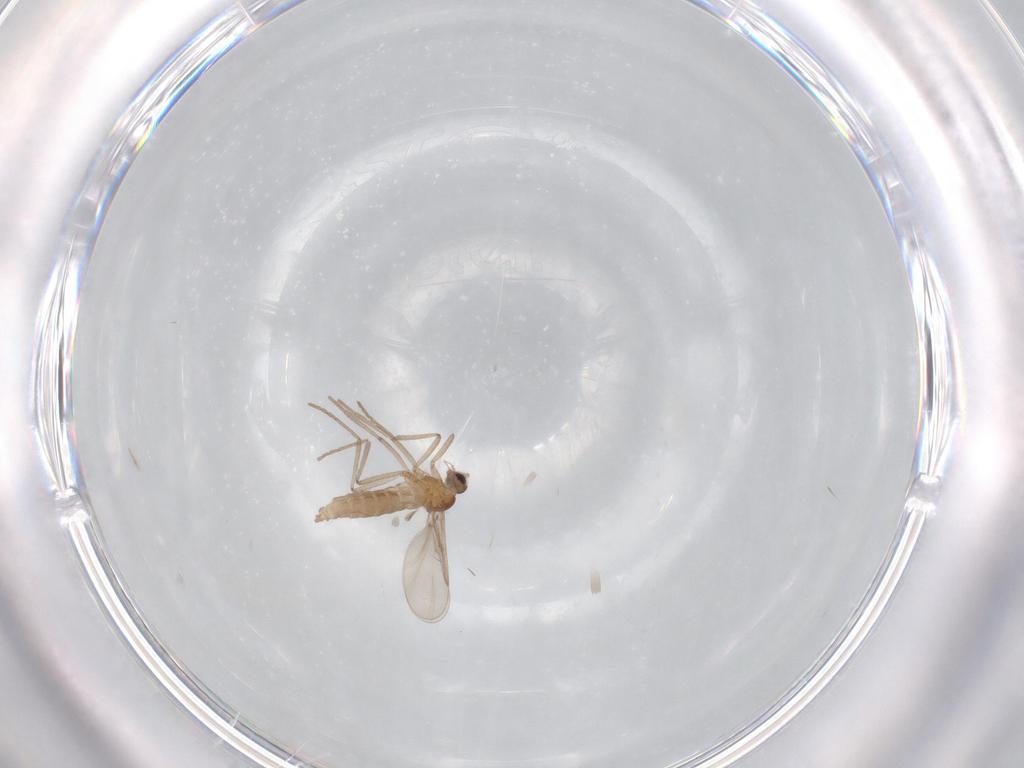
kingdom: Animalia
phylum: Arthropoda
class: Insecta
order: Diptera
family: Cecidomyiidae
